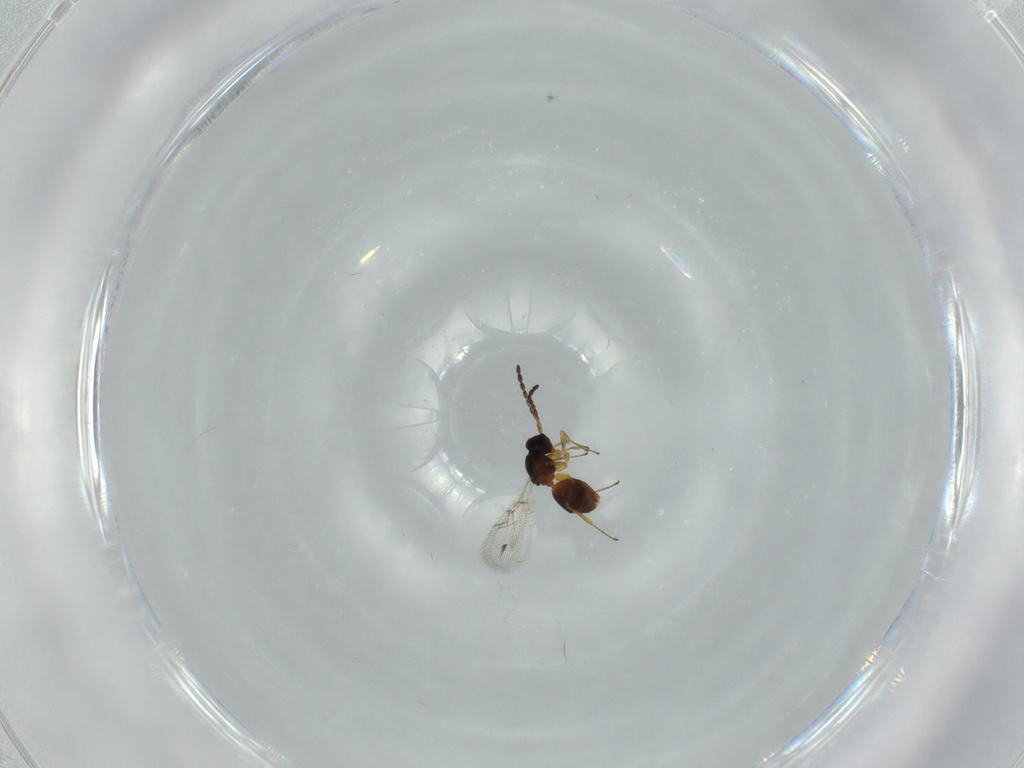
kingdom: Animalia
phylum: Arthropoda
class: Insecta
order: Hymenoptera
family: Figitidae
